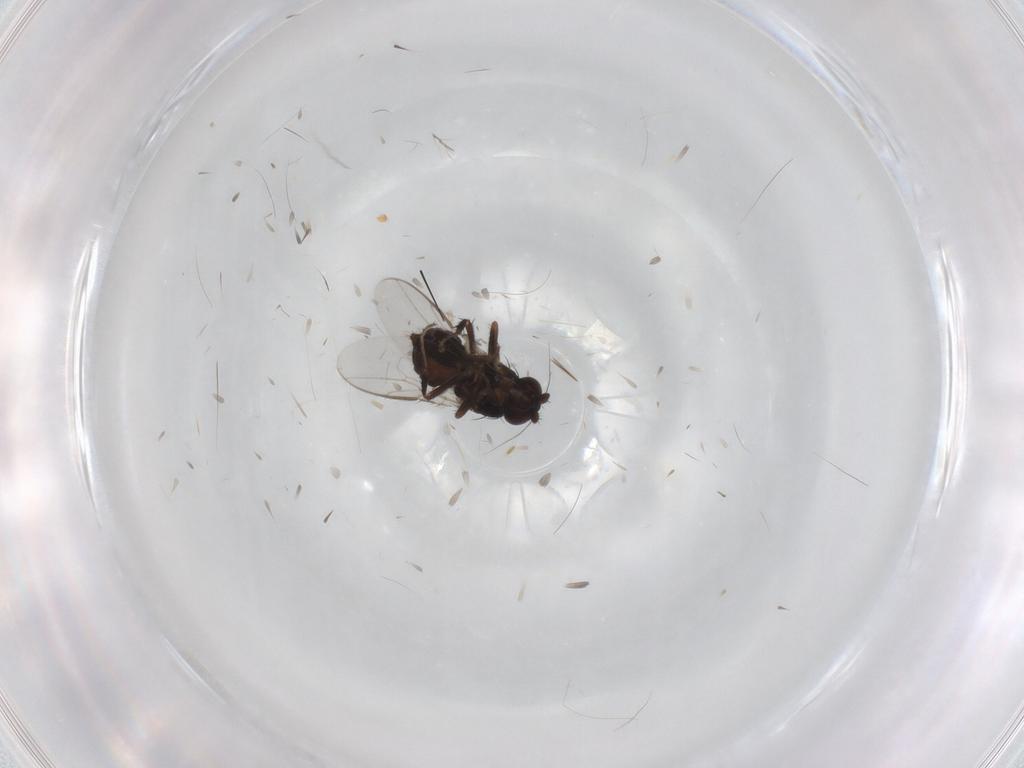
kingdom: Animalia
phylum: Arthropoda
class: Insecta
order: Diptera
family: Sphaeroceridae
